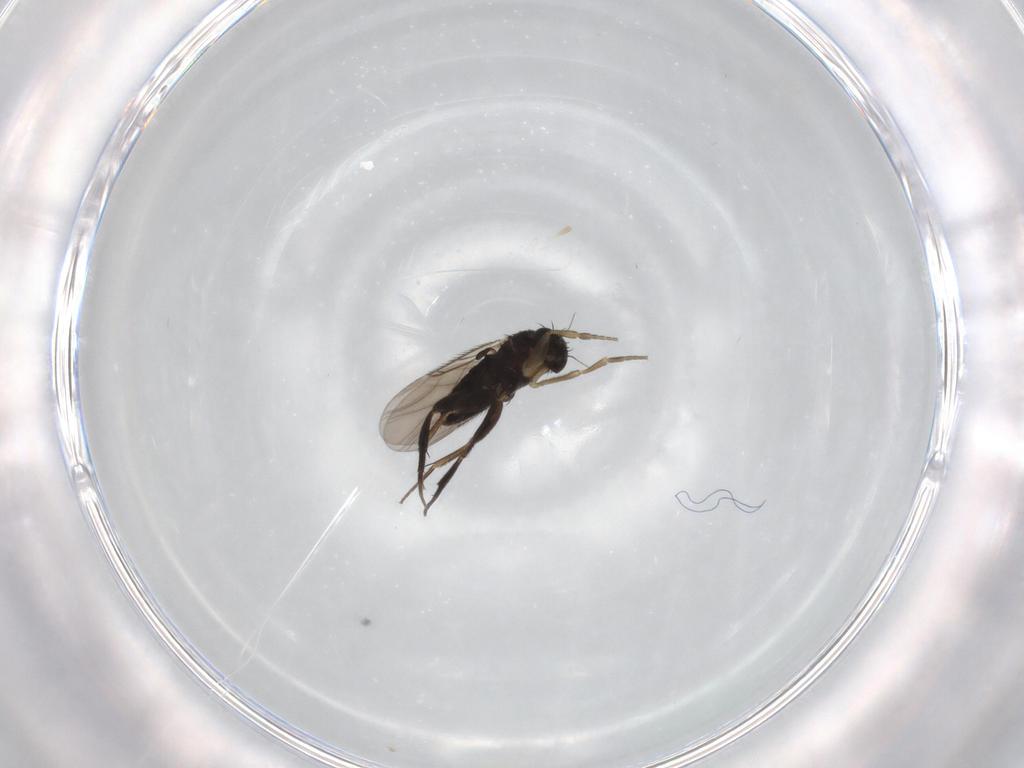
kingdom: Animalia
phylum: Arthropoda
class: Insecta
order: Diptera
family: Phoridae
